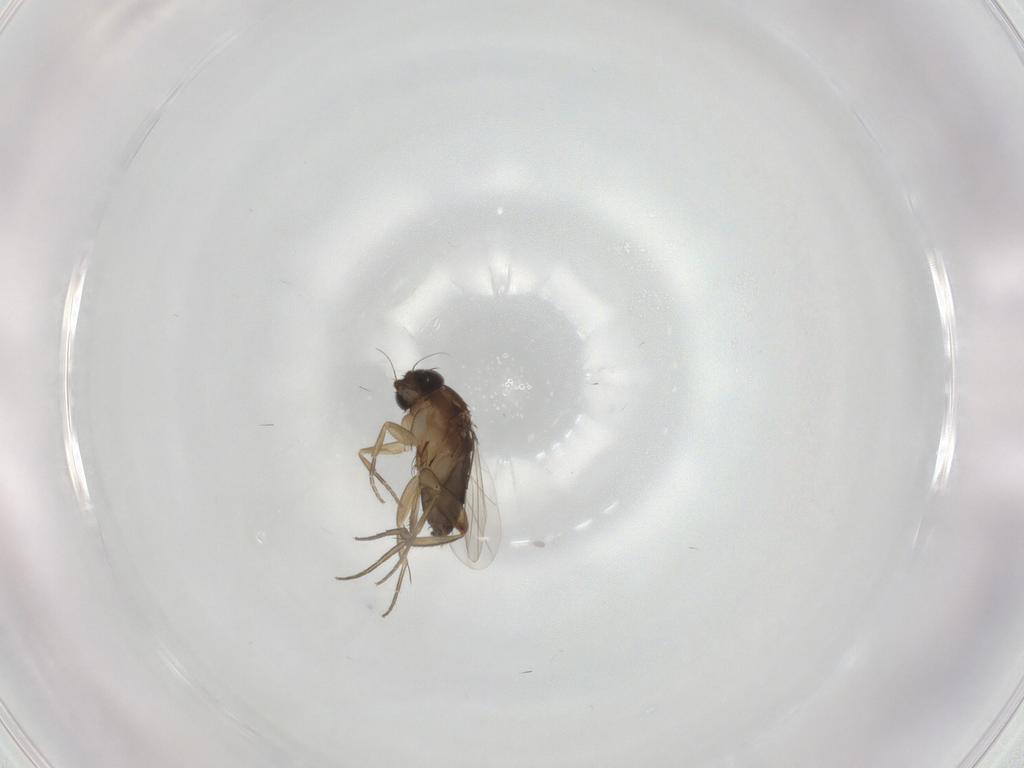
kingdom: Animalia
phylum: Arthropoda
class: Insecta
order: Diptera
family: Phoridae
